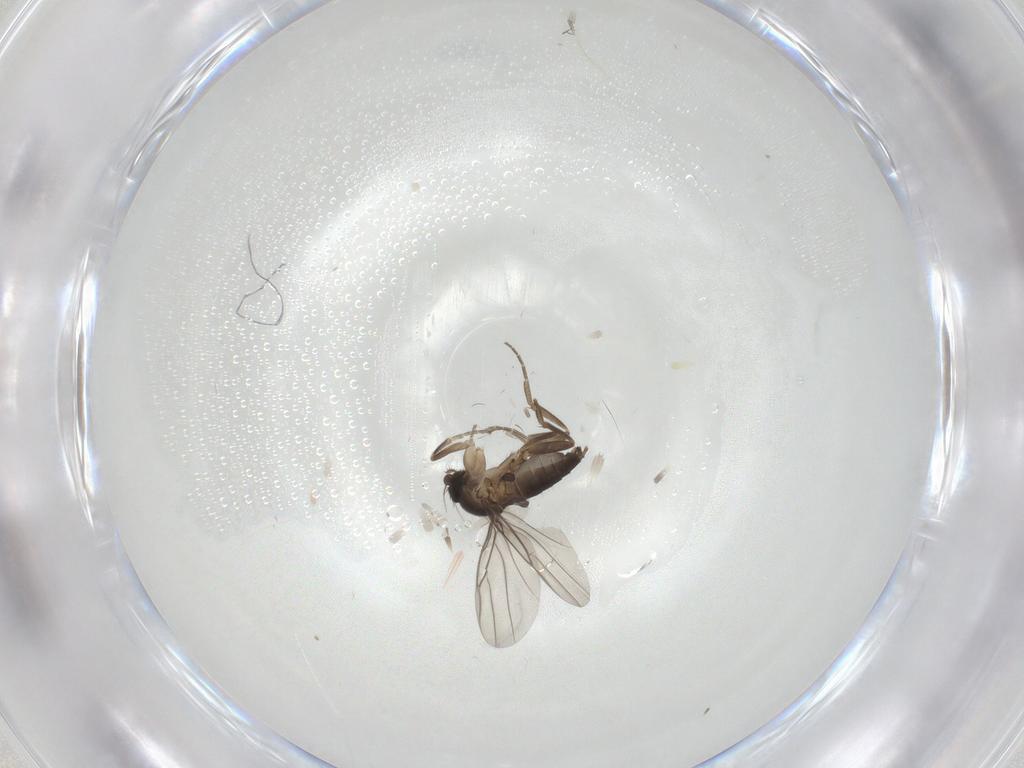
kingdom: Animalia
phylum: Arthropoda
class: Insecta
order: Diptera
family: Phoridae
